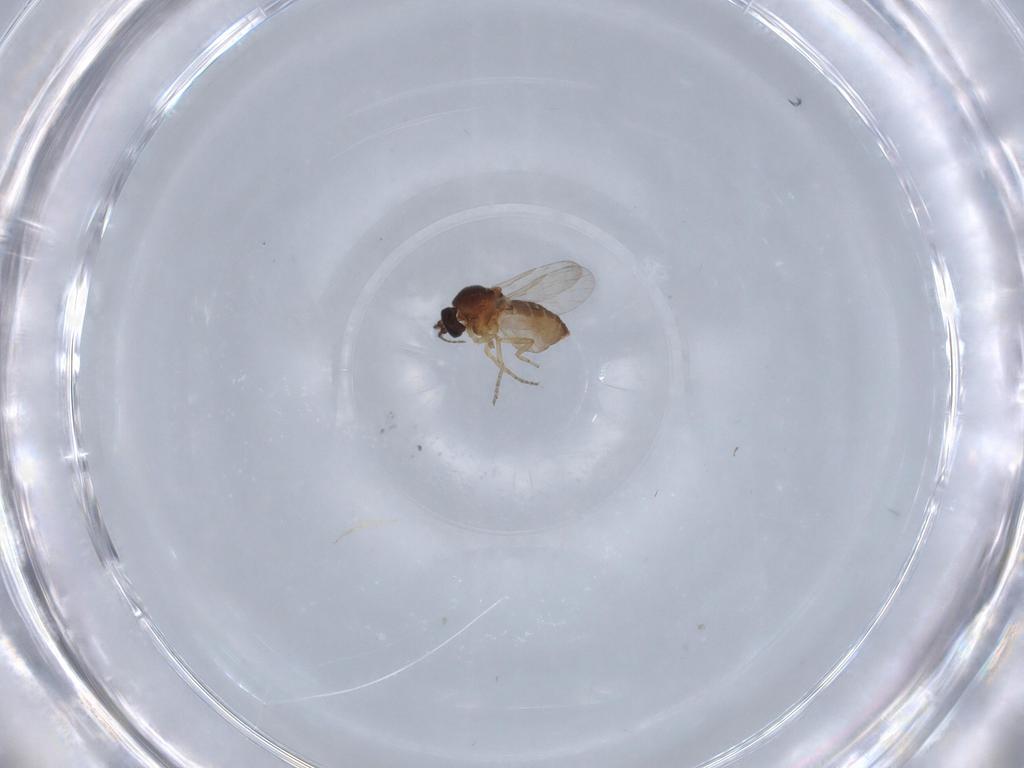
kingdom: Animalia
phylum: Arthropoda
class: Insecta
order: Diptera
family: Ceratopogonidae
